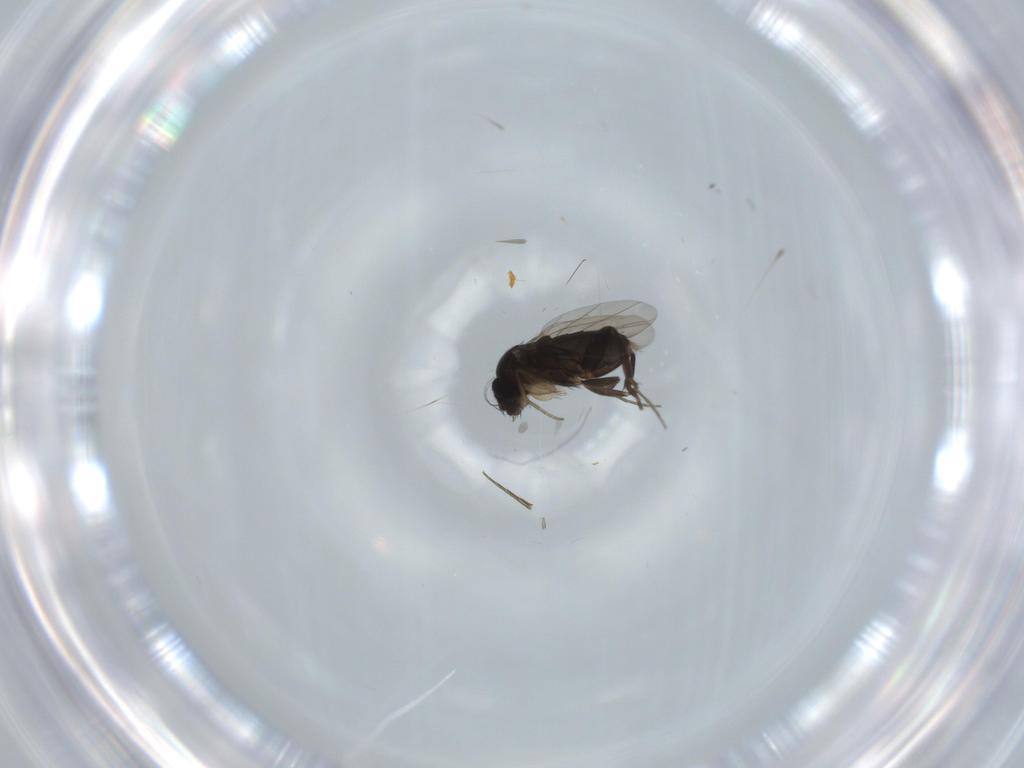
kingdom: Animalia
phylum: Arthropoda
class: Insecta
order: Diptera
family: Phoridae
